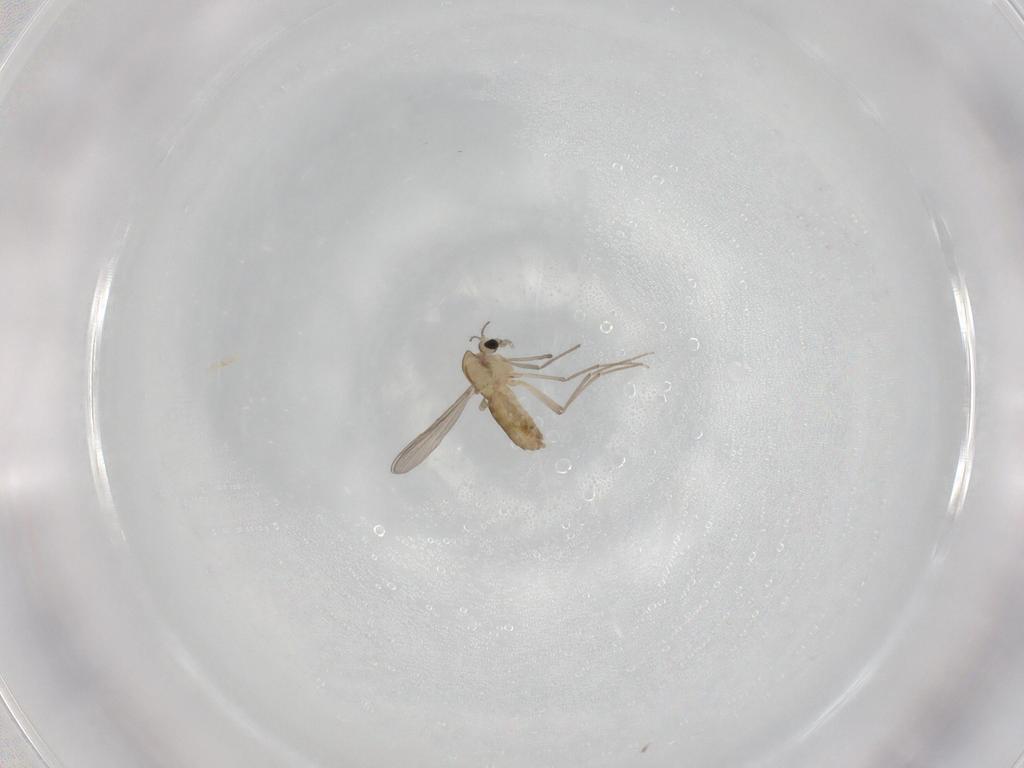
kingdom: Animalia
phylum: Arthropoda
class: Insecta
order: Diptera
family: Chironomidae
